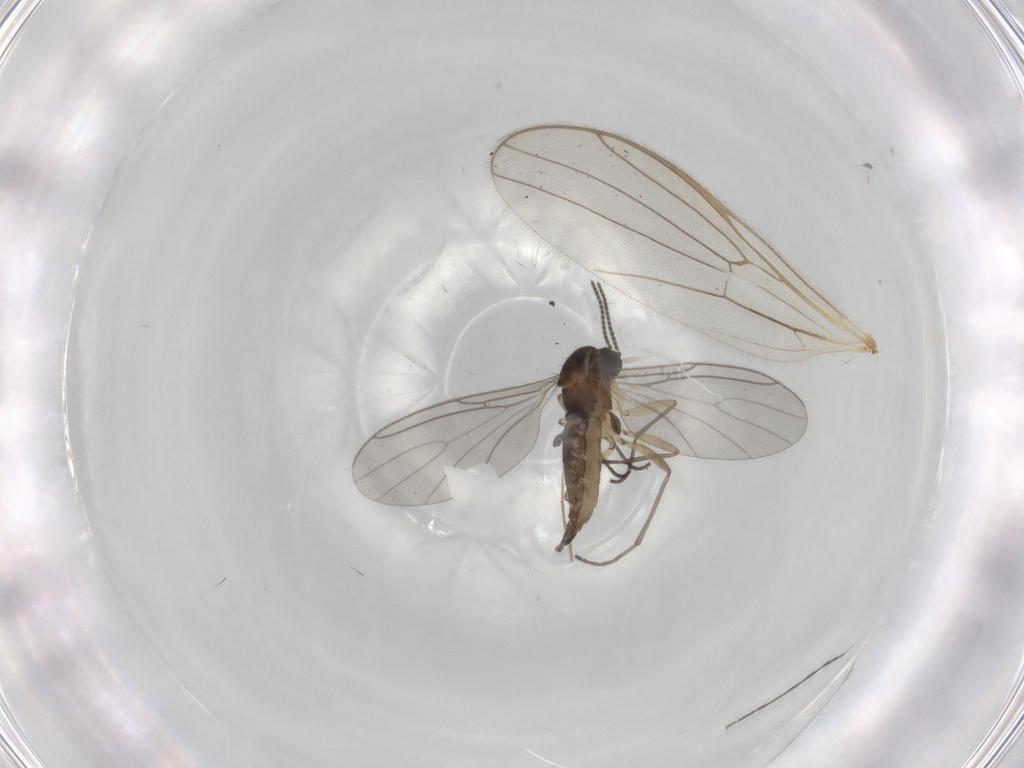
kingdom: Animalia
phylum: Arthropoda
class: Insecta
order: Diptera
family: Sciaridae
